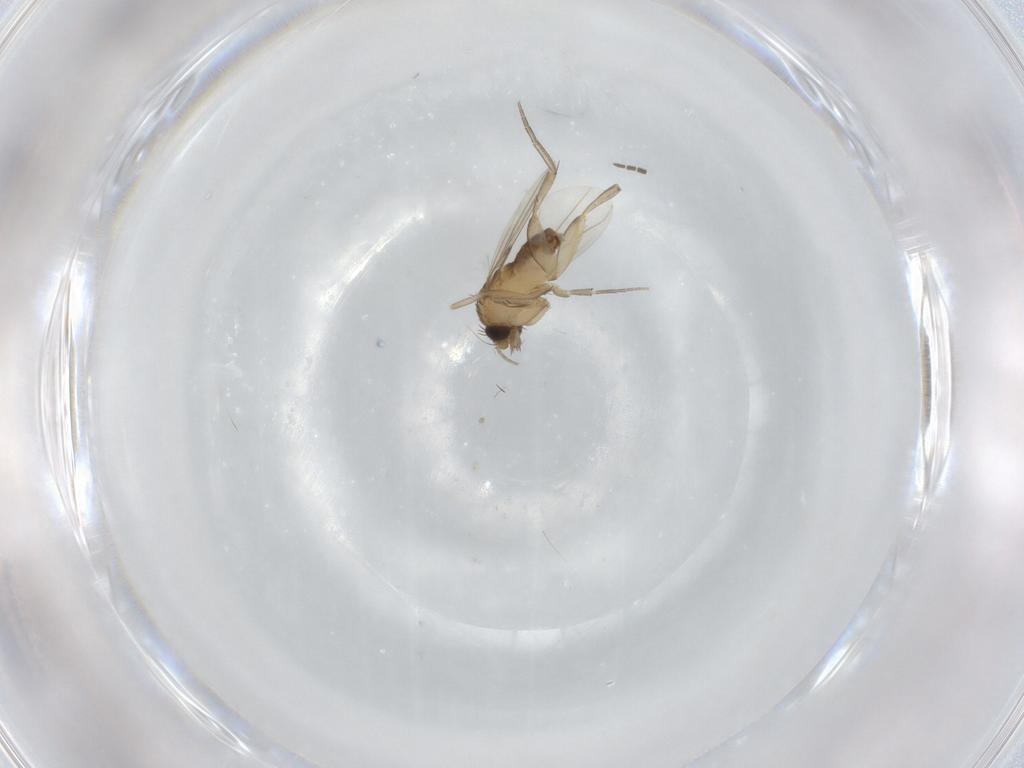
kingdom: Animalia
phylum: Arthropoda
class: Insecta
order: Diptera
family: Phoridae
